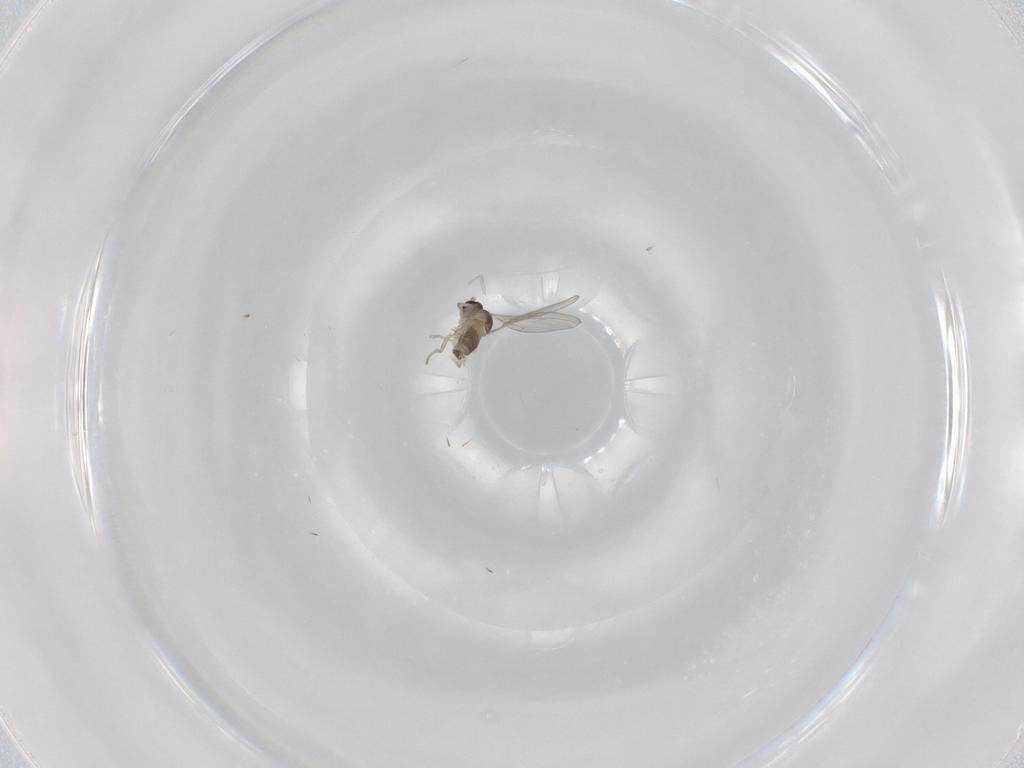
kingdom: Animalia
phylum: Arthropoda
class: Insecta
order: Diptera
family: Cecidomyiidae
